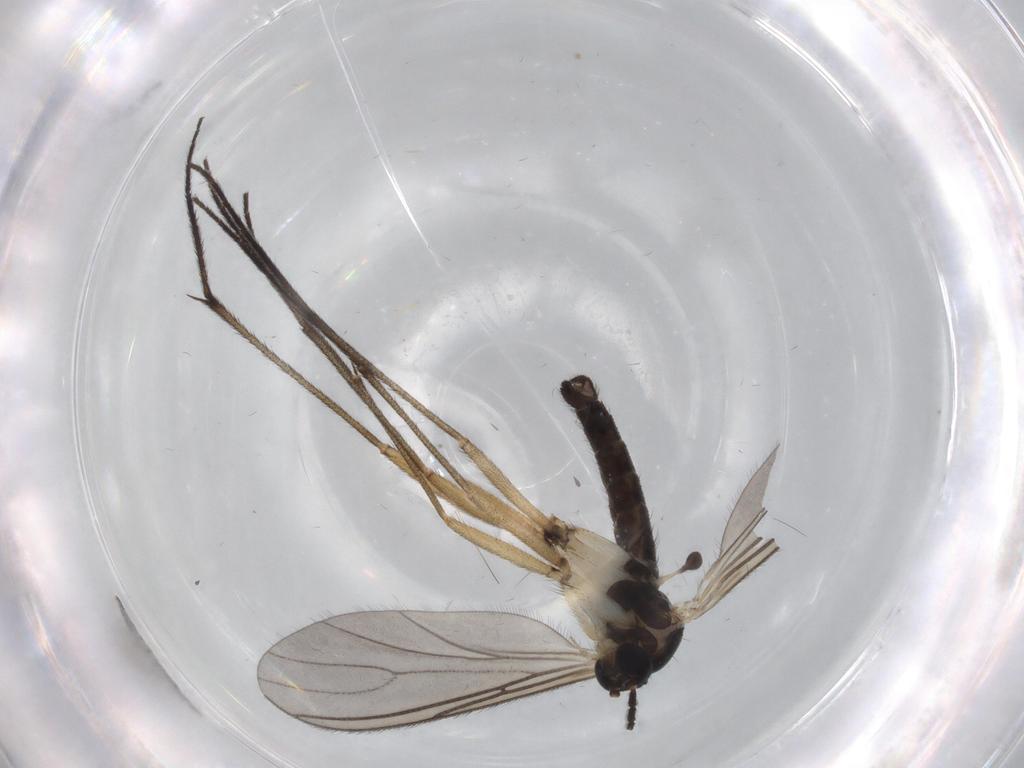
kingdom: Animalia
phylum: Arthropoda
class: Insecta
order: Diptera
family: Sciaridae
